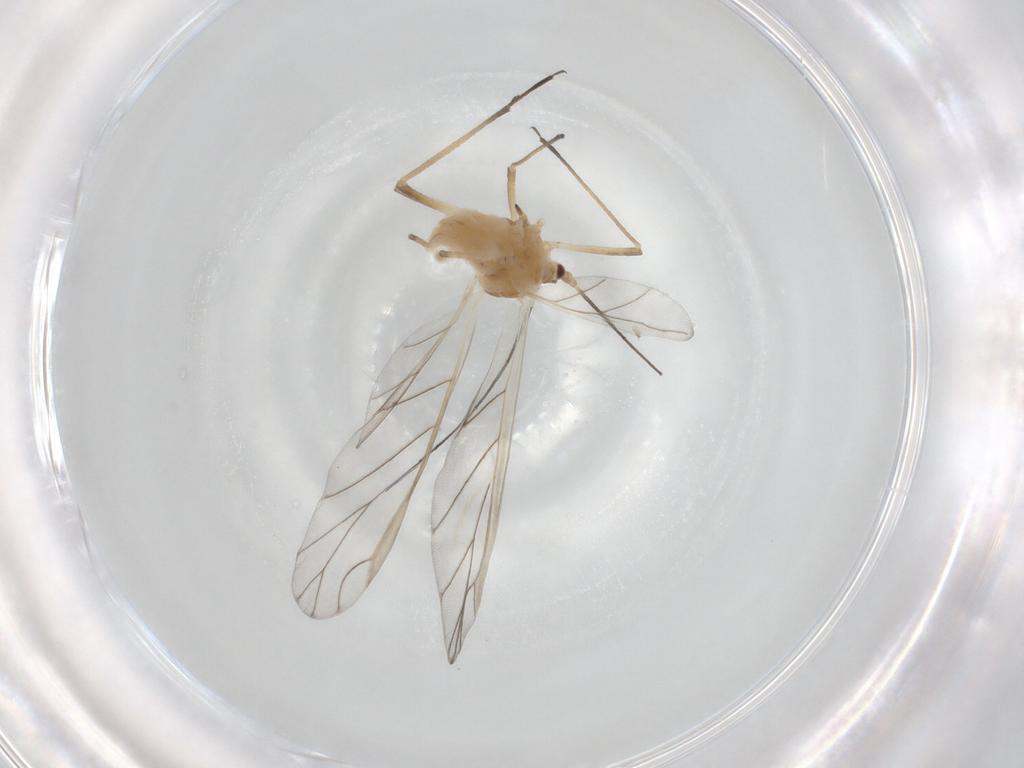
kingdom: Animalia
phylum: Arthropoda
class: Insecta
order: Hemiptera
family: Aphididae
